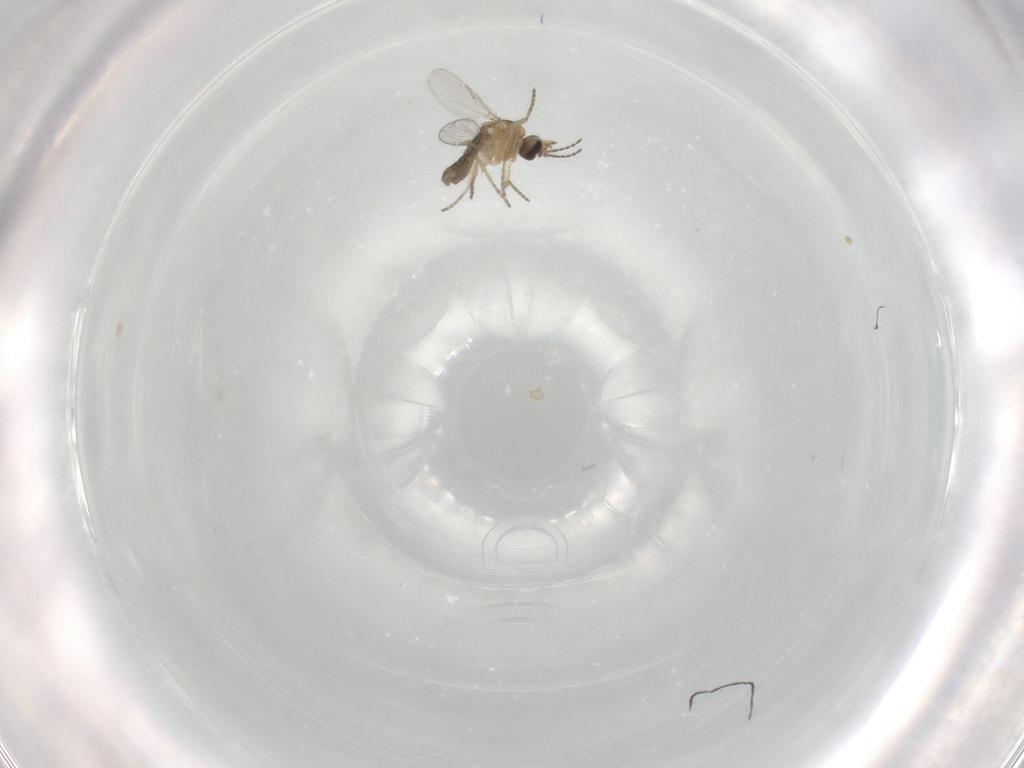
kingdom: Animalia
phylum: Arthropoda
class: Insecta
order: Diptera
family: Ceratopogonidae
